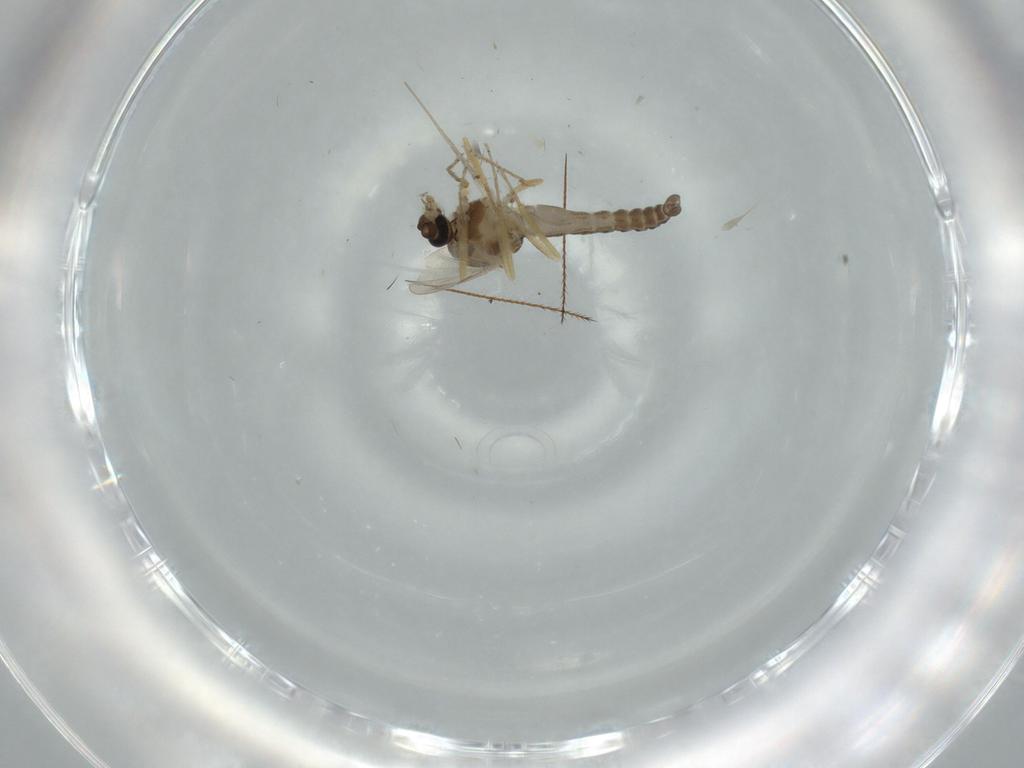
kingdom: Animalia
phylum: Arthropoda
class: Insecta
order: Diptera
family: Ceratopogonidae
